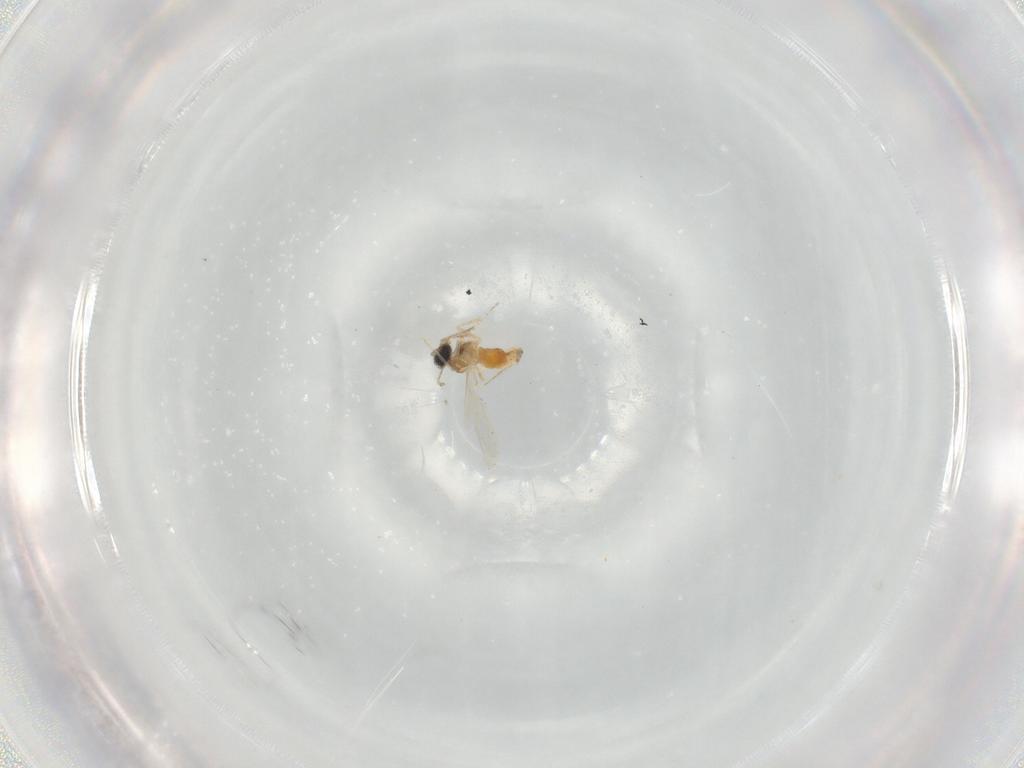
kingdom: Animalia
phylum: Arthropoda
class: Insecta
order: Diptera
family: Cecidomyiidae
